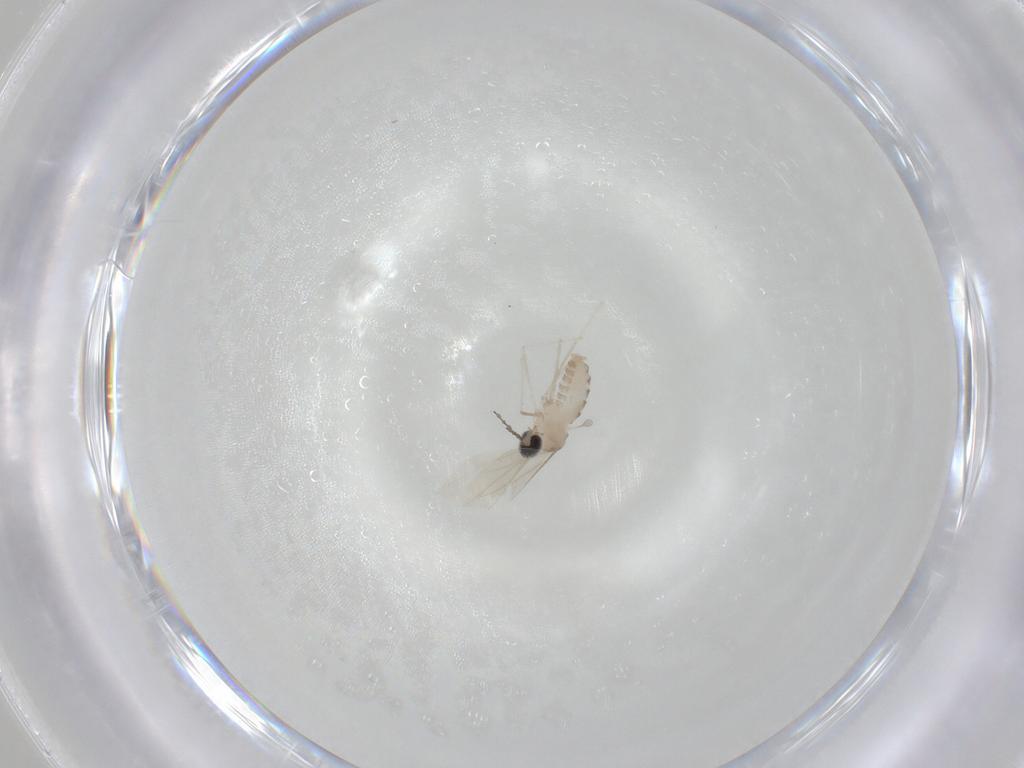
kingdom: Animalia
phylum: Arthropoda
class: Insecta
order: Diptera
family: Cecidomyiidae
